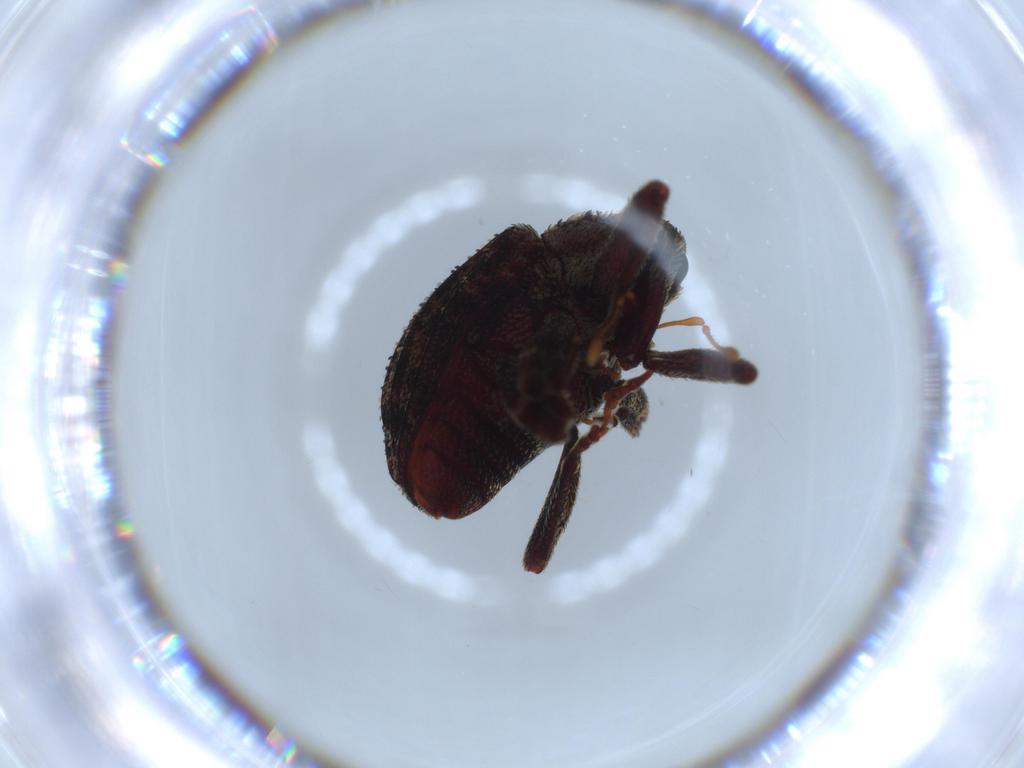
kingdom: Animalia
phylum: Arthropoda
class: Insecta
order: Coleoptera
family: Curculionidae
